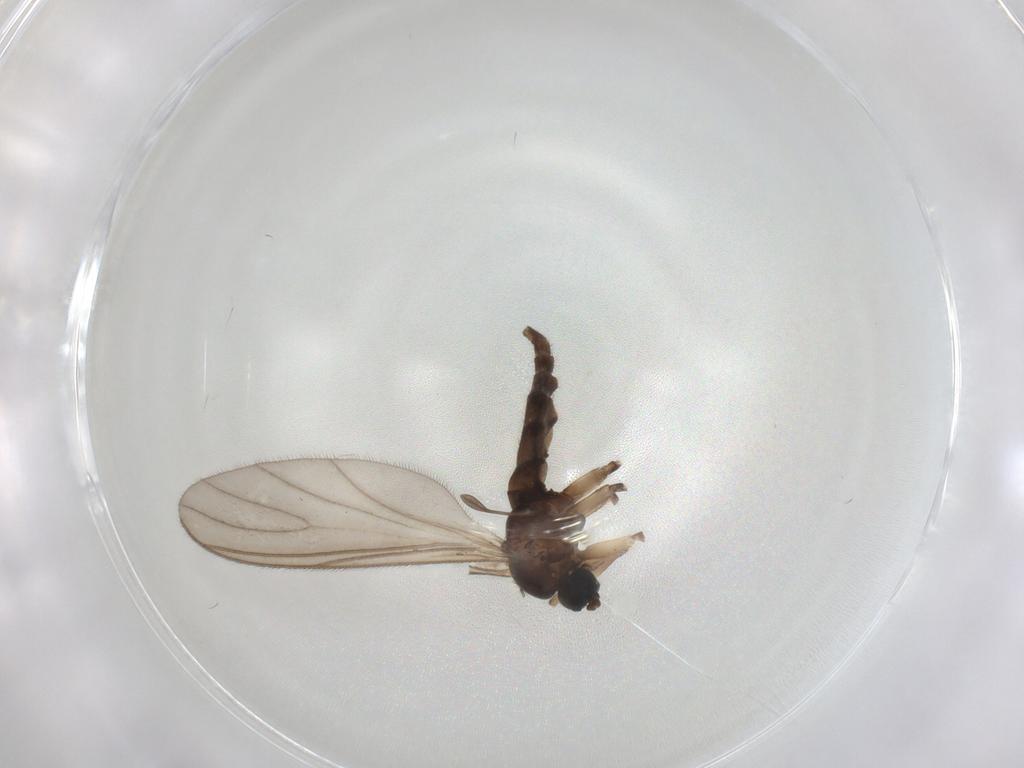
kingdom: Animalia
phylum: Arthropoda
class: Insecta
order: Diptera
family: Sciaridae
